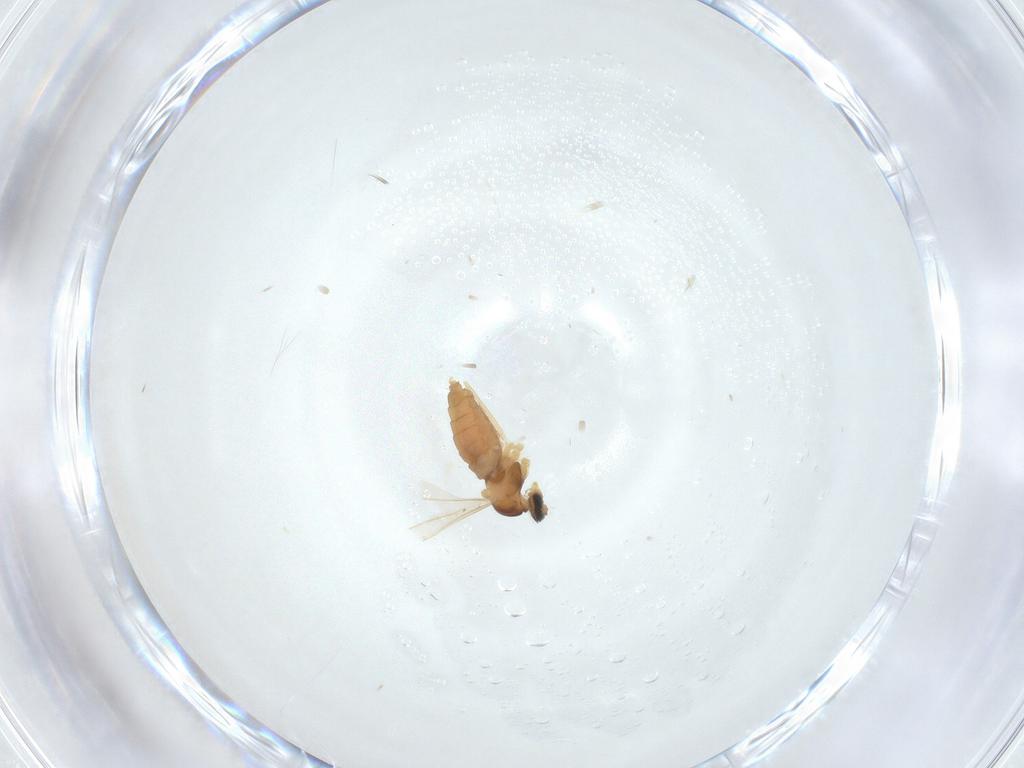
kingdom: Animalia
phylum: Arthropoda
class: Insecta
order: Diptera
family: Cecidomyiidae
